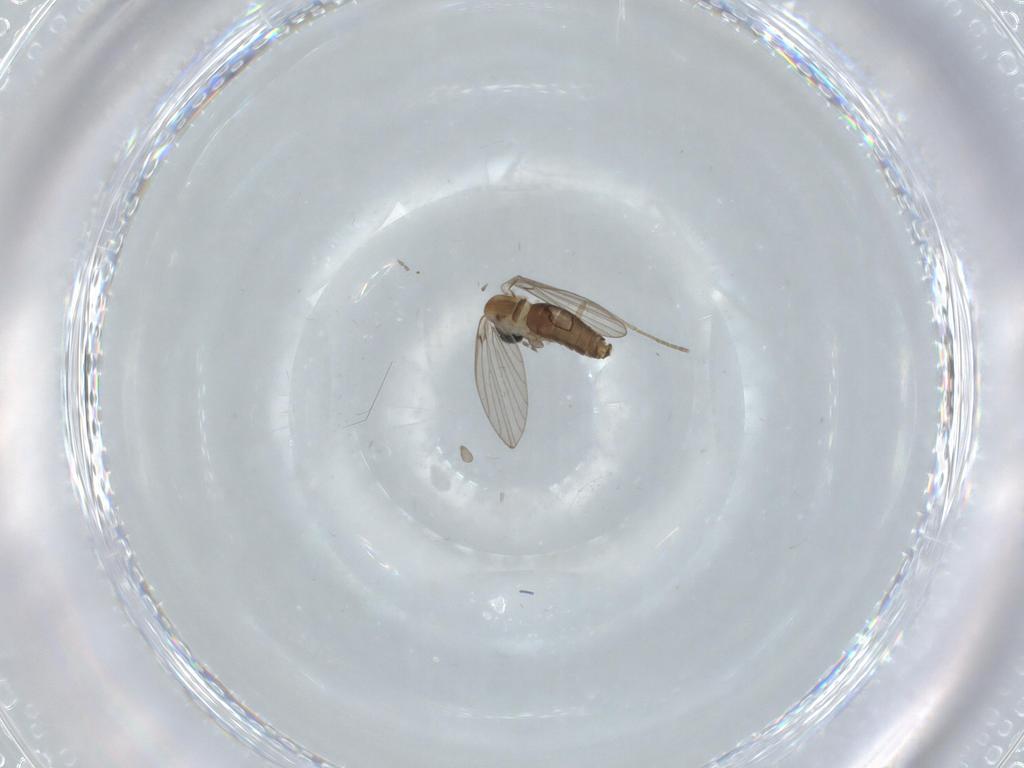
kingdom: Animalia
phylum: Arthropoda
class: Insecta
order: Diptera
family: Psychodidae
